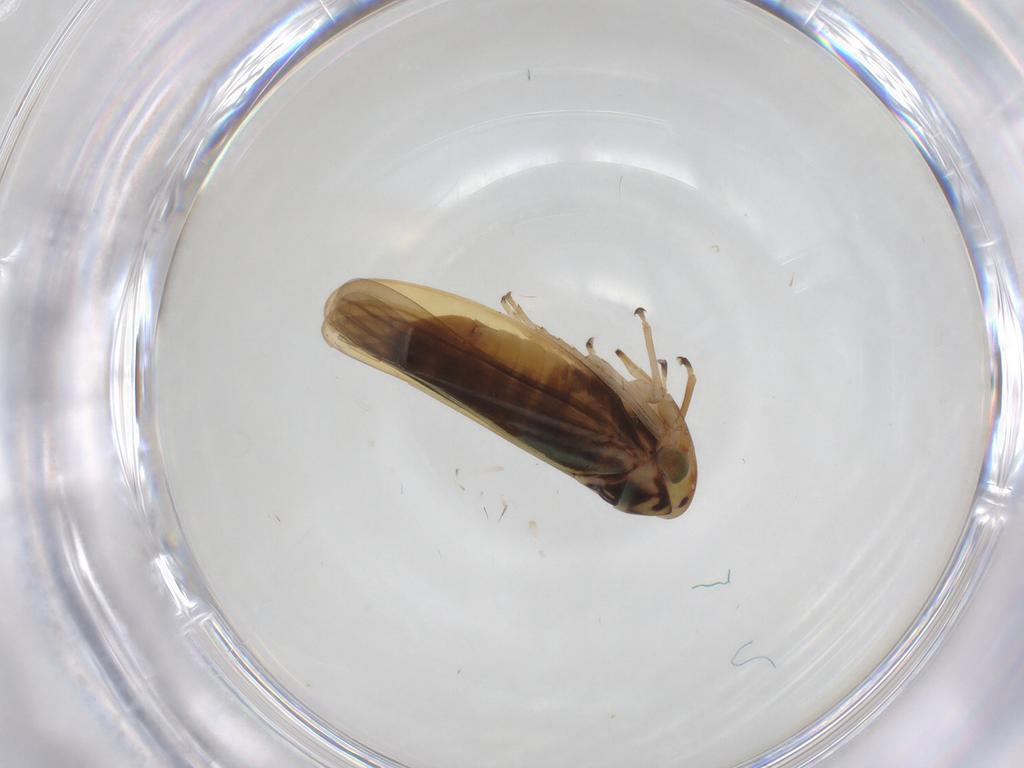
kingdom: Animalia
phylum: Arthropoda
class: Insecta
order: Hemiptera
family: Cicadellidae
